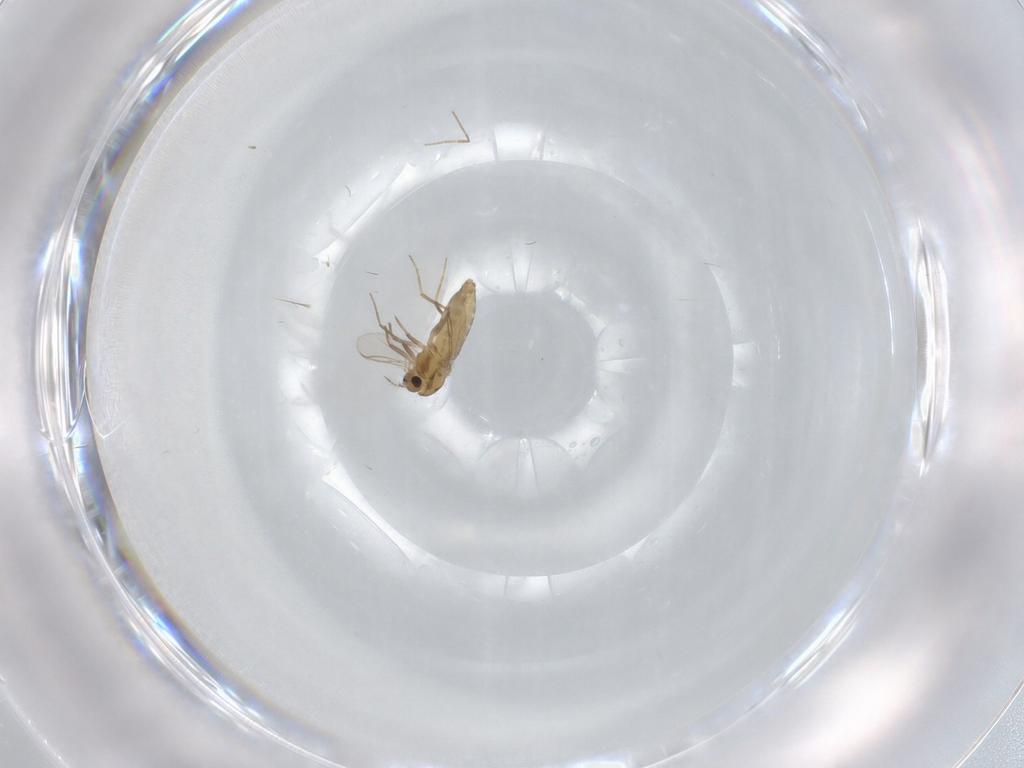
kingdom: Animalia
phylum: Arthropoda
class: Insecta
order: Diptera
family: Chironomidae
